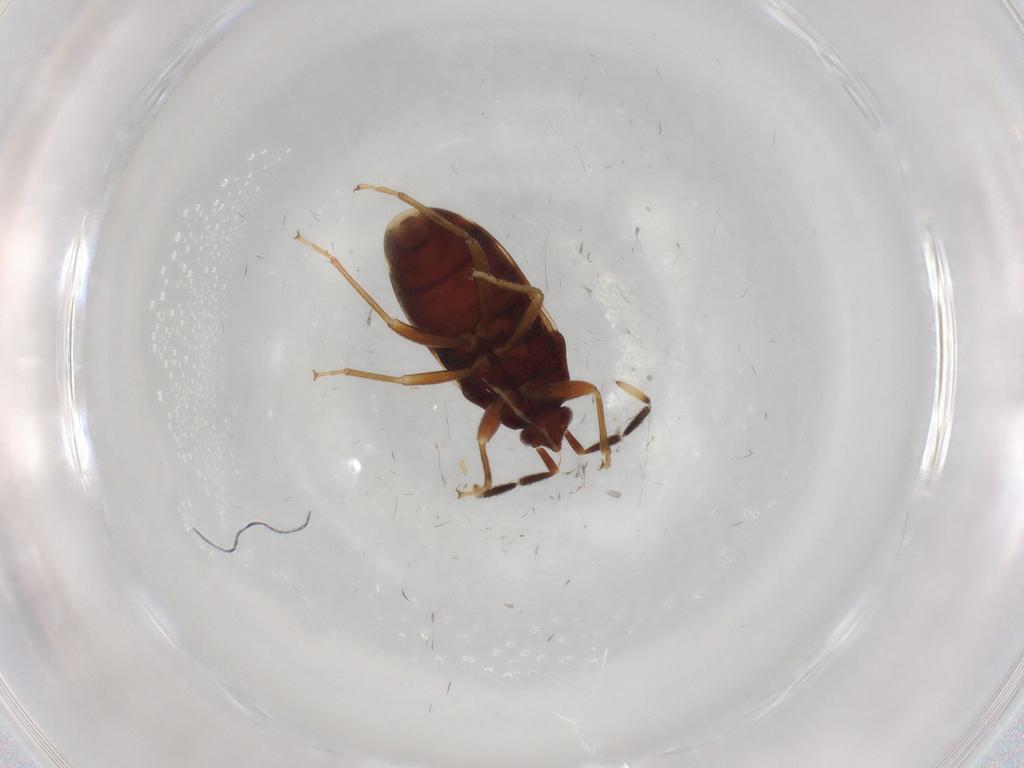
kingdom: Animalia
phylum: Arthropoda
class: Insecta
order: Hemiptera
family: Rhyparochromidae
